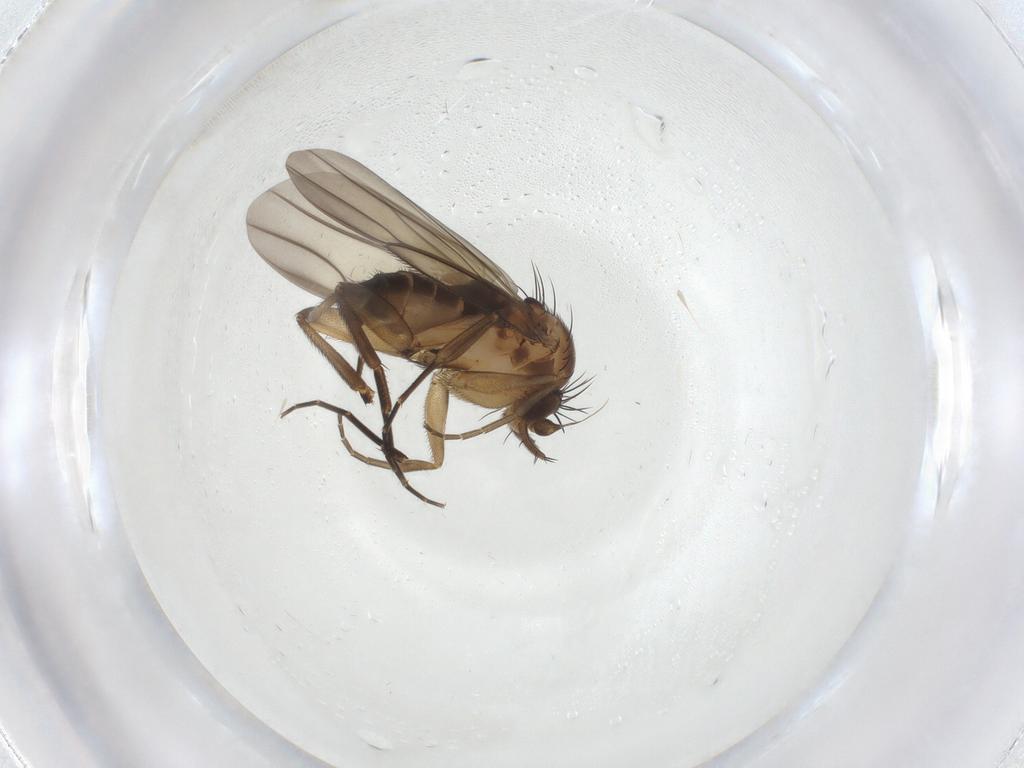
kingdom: Animalia
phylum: Arthropoda
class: Insecta
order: Diptera
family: Phoridae
